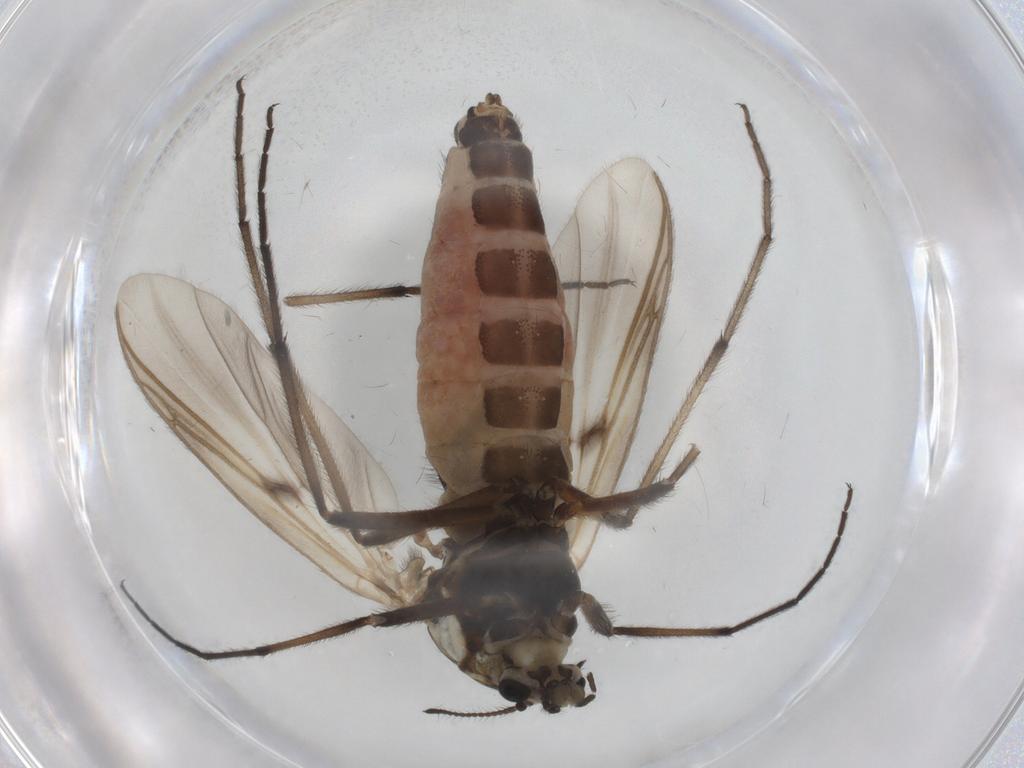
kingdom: Animalia
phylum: Arthropoda
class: Insecta
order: Diptera
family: Chironomidae
